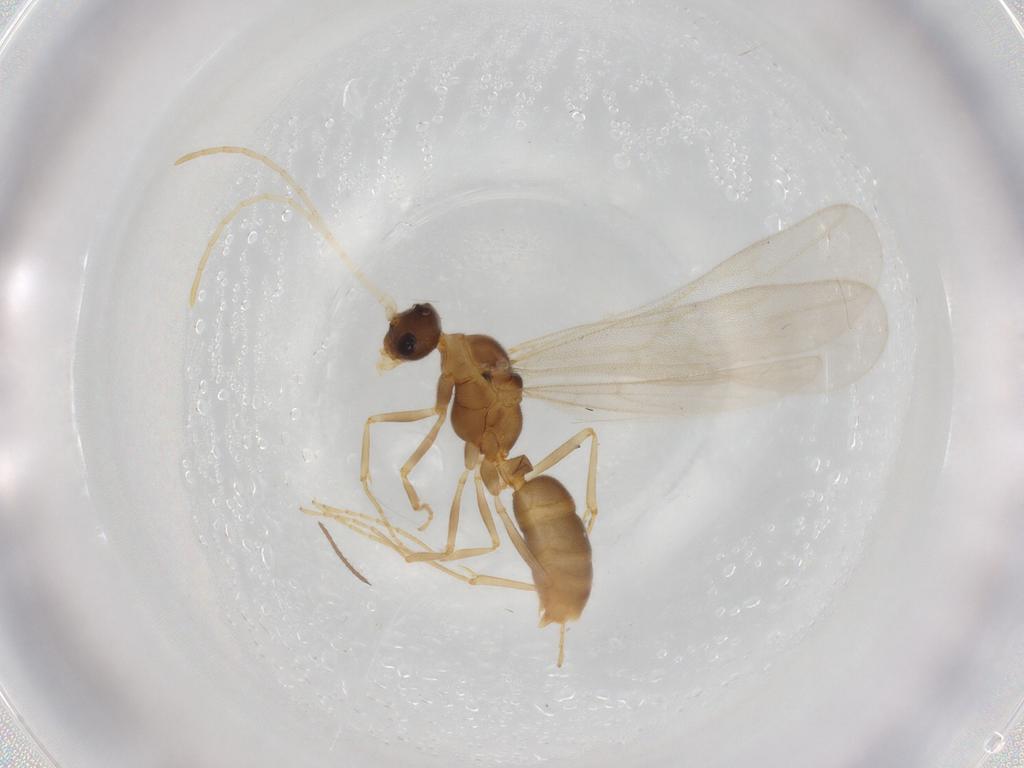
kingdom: Animalia
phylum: Arthropoda
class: Insecta
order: Hymenoptera
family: Formicidae
